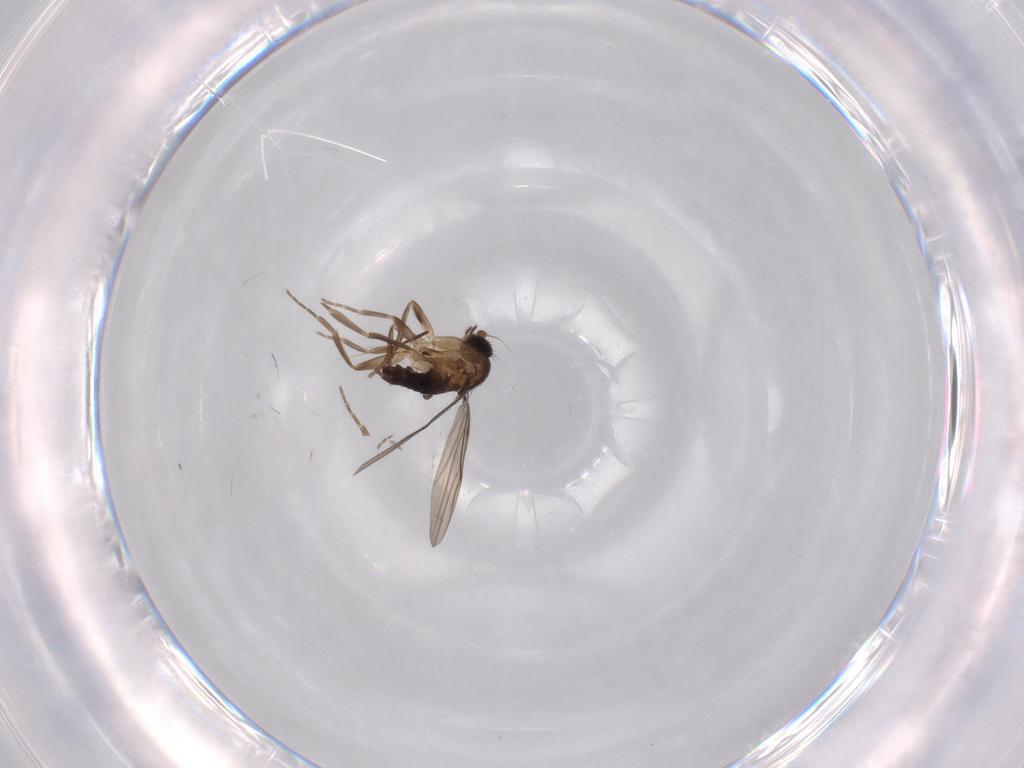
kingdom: Animalia
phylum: Arthropoda
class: Insecta
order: Diptera
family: Phoridae
